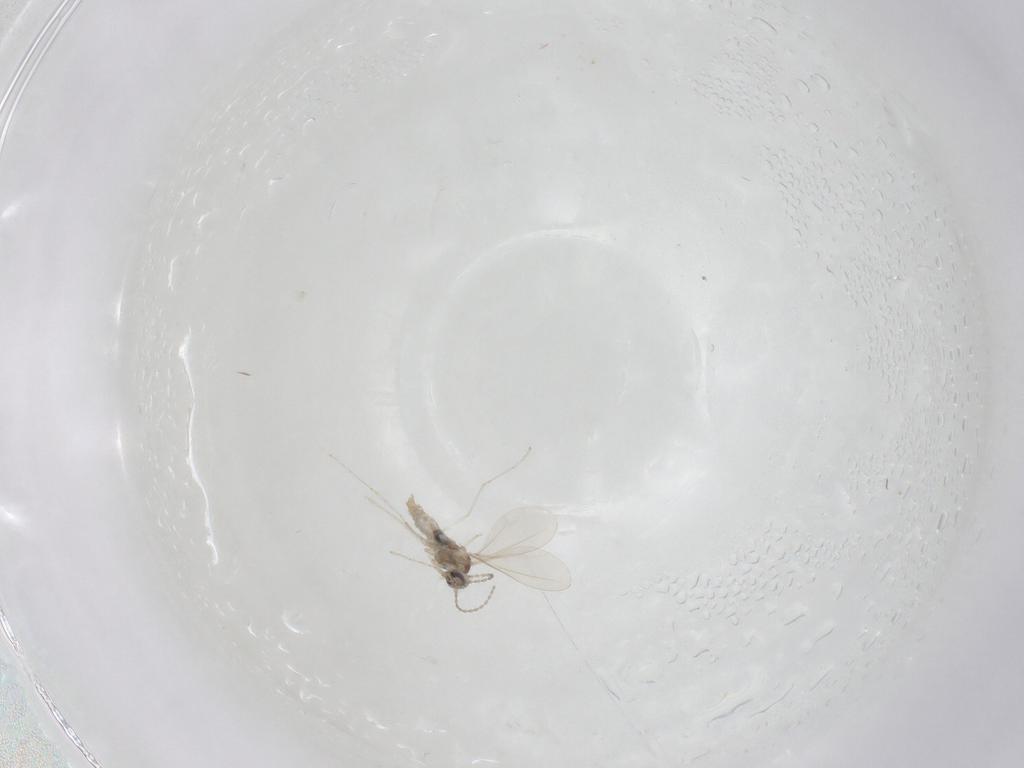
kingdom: Animalia
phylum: Arthropoda
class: Insecta
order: Diptera
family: Cecidomyiidae
